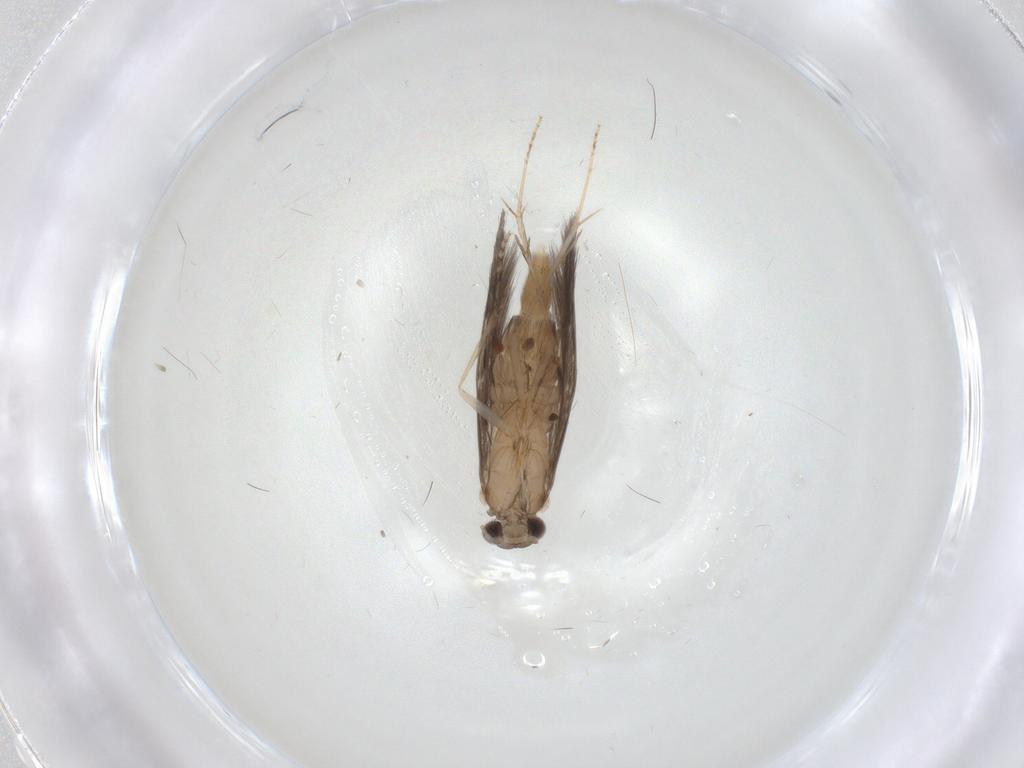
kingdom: Animalia
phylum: Arthropoda
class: Insecta
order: Trichoptera
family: Hydroptilidae
